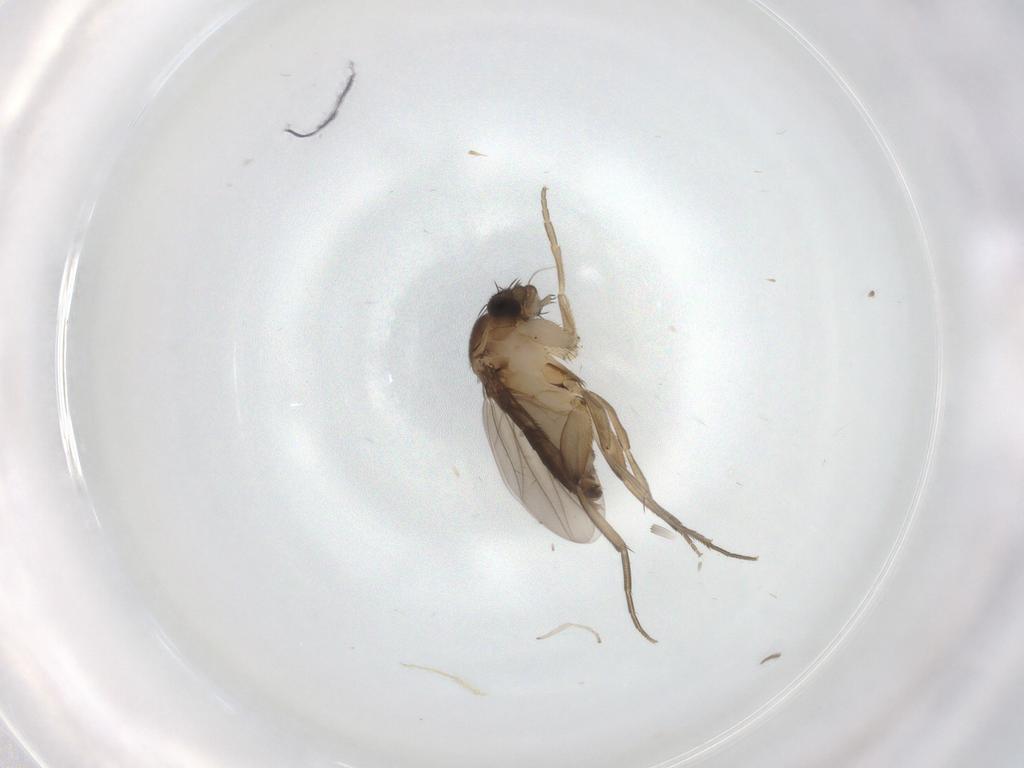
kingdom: Animalia
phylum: Arthropoda
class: Insecta
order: Diptera
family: Phoridae
